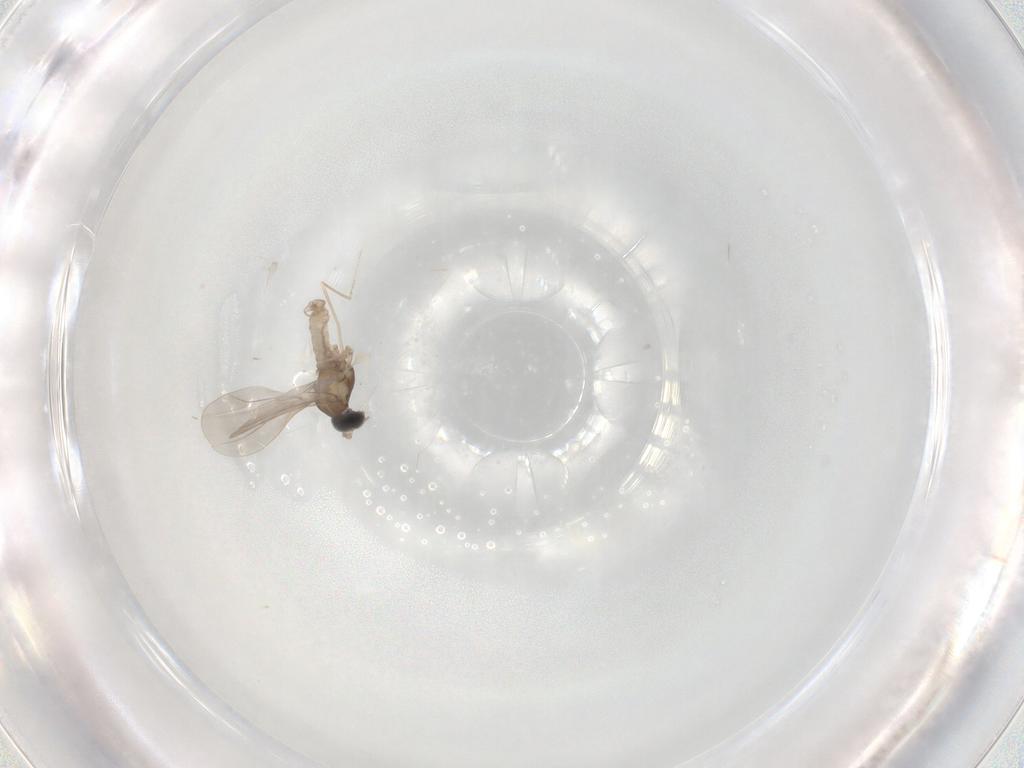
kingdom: Animalia
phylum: Arthropoda
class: Insecta
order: Diptera
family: Cecidomyiidae
